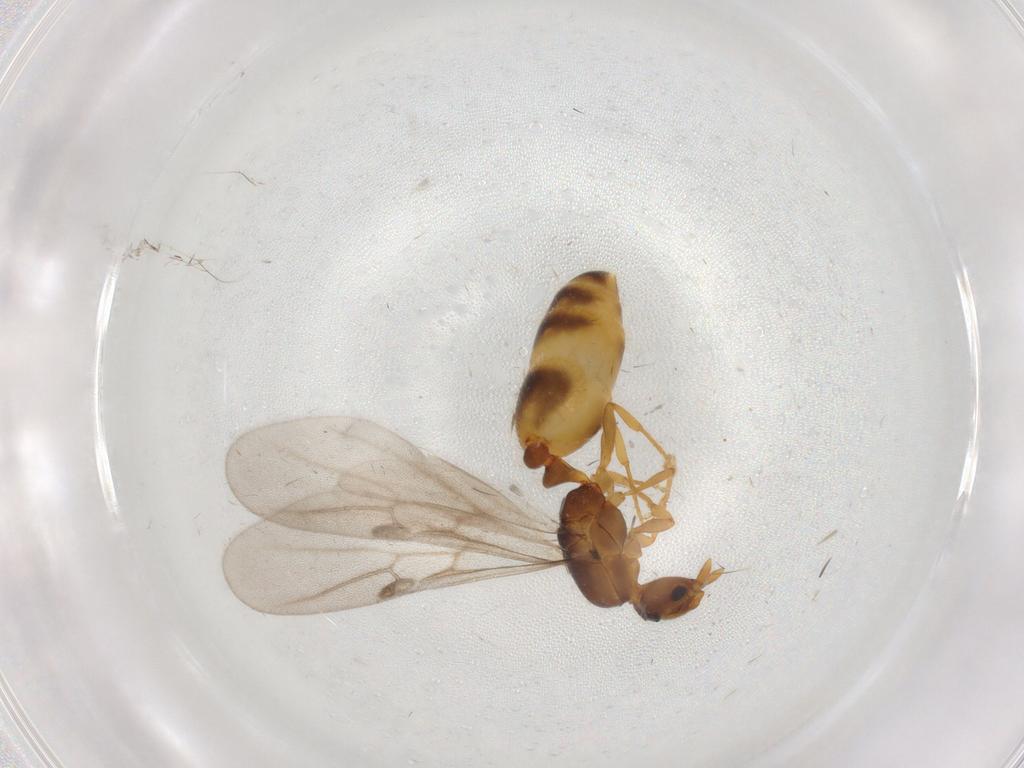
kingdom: Animalia
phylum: Arthropoda
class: Insecta
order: Hymenoptera
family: Formicidae
